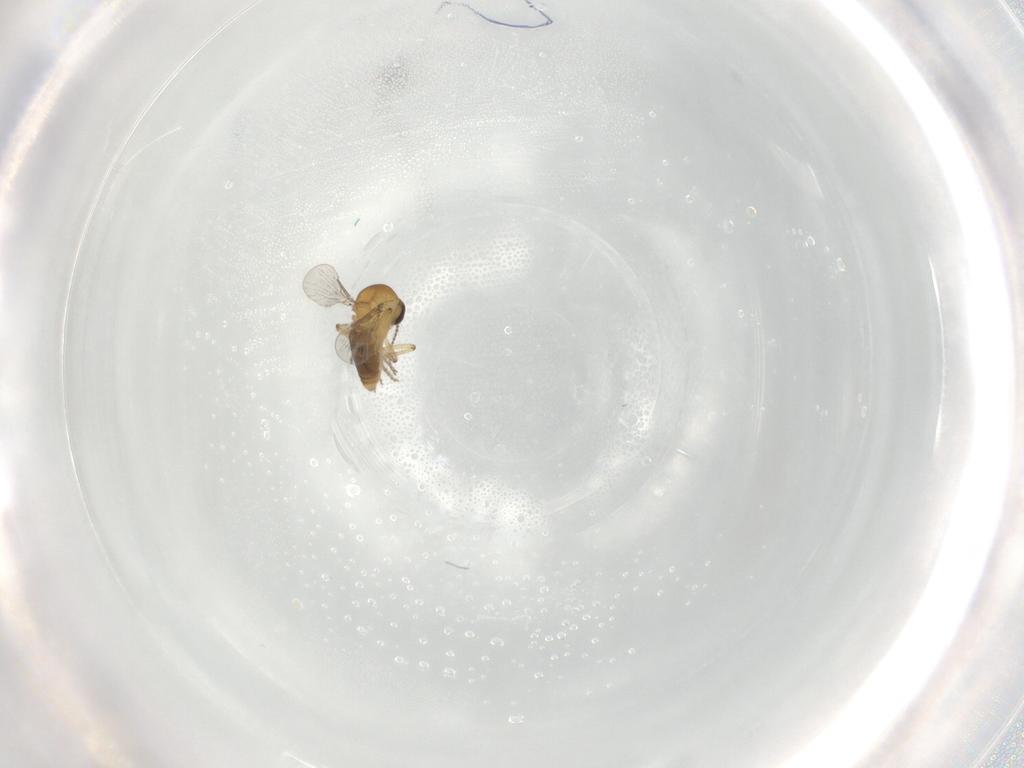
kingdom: Animalia
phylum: Arthropoda
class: Insecta
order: Diptera
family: Ceratopogonidae
